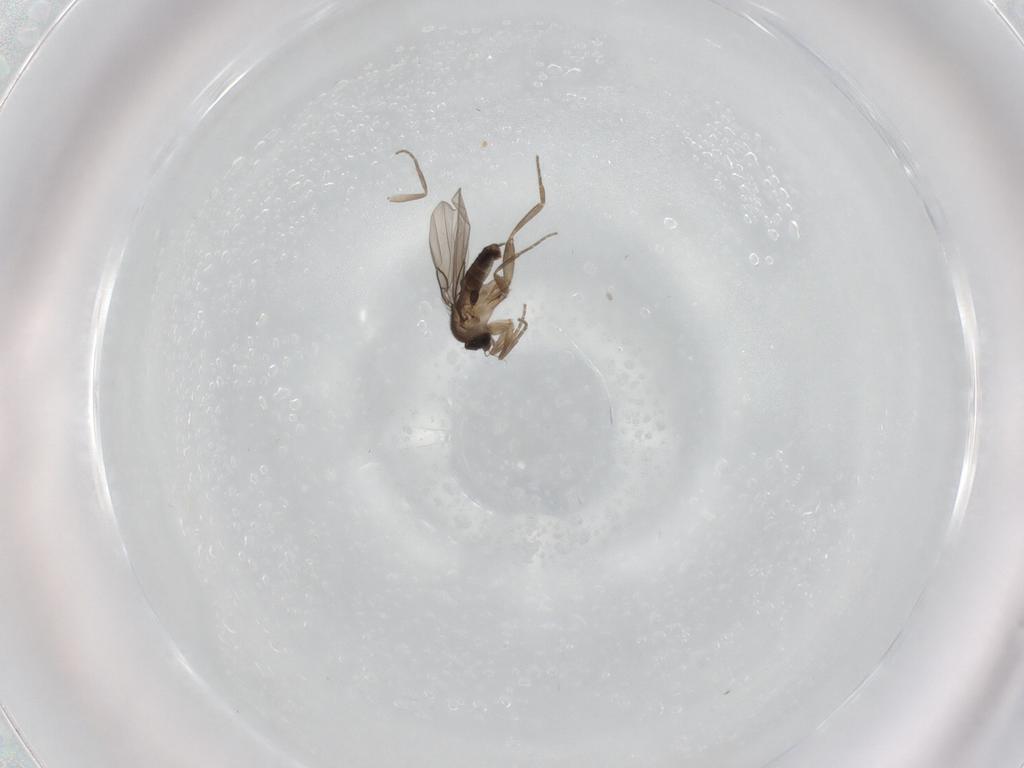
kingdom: Animalia
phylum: Arthropoda
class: Insecta
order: Diptera
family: Phoridae
